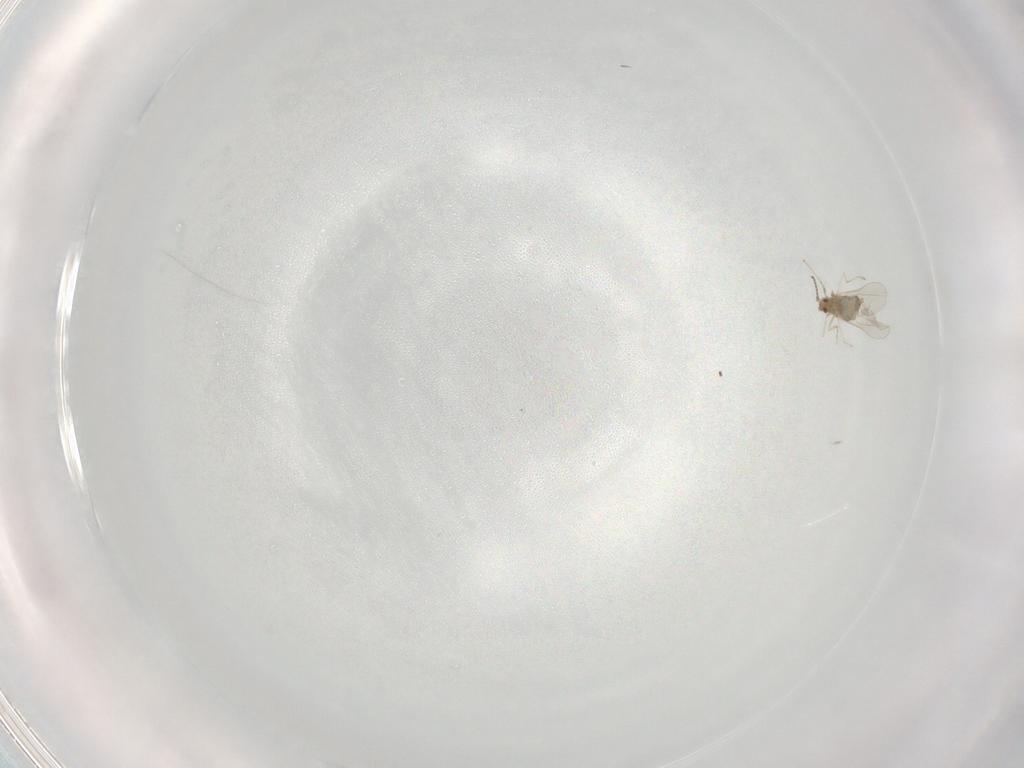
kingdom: Animalia
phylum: Arthropoda
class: Insecta
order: Diptera
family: Cecidomyiidae
